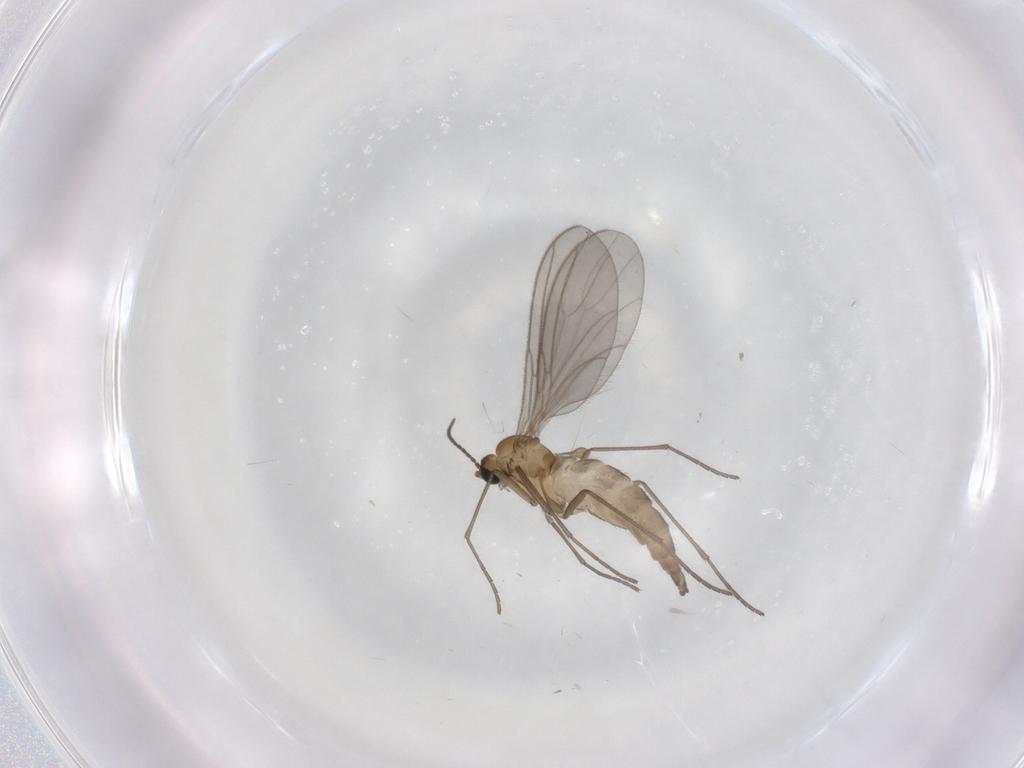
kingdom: Animalia
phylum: Arthropoda
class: Insecta
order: Diptera
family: Sciaridae
